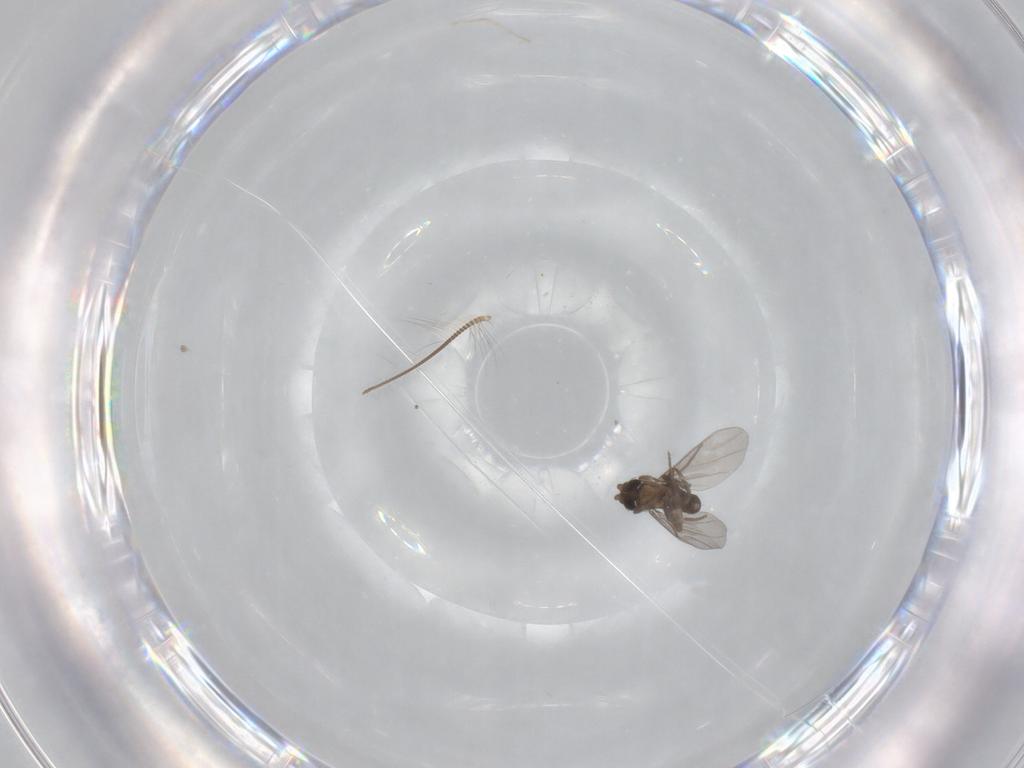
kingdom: Animalia
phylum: Arthropoda
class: Insecta
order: Diptera
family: Chironomidae
